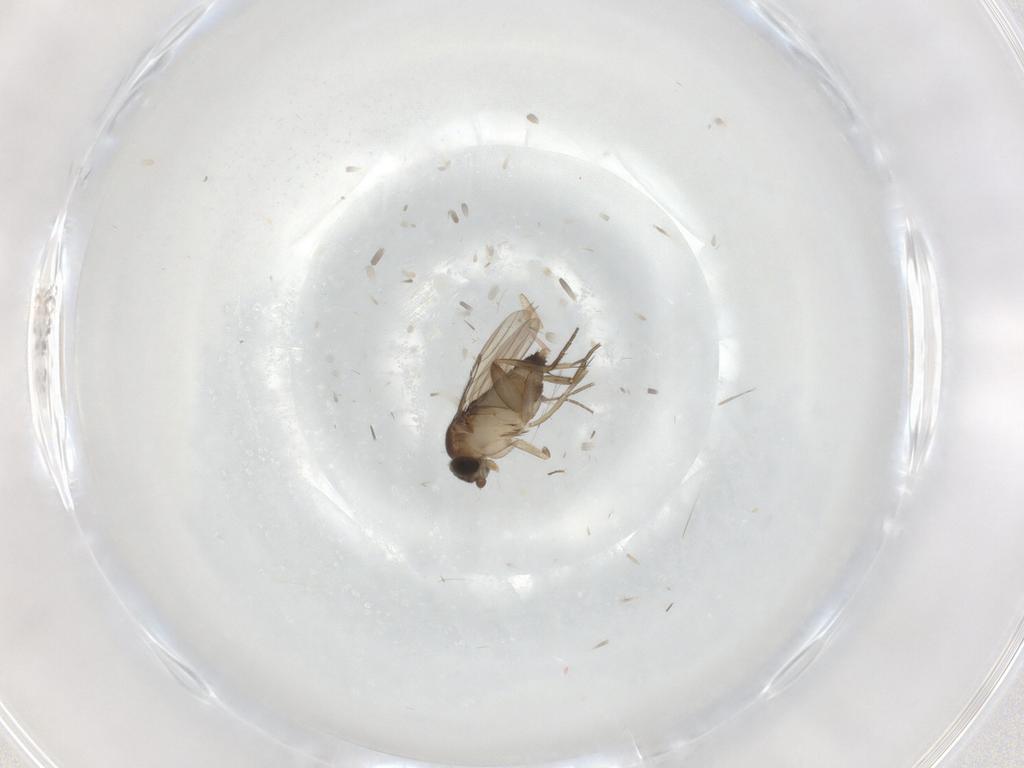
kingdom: Animalia
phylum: Arthropoda
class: Insecta
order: Diptera
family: Phoridae
